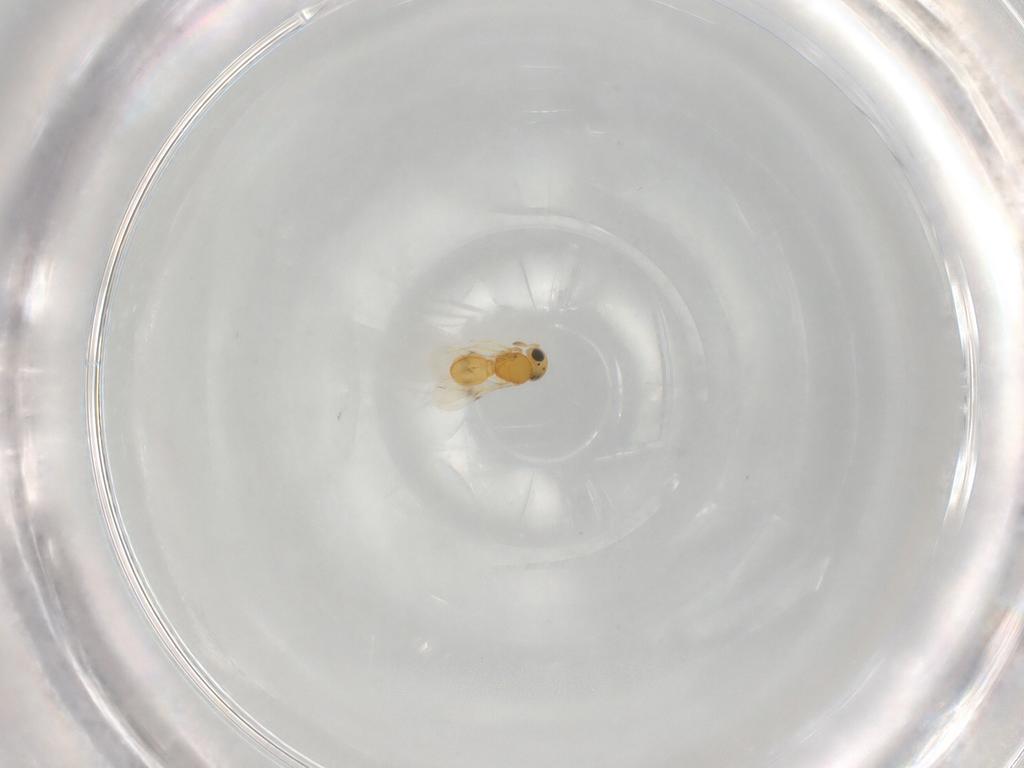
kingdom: Animalia
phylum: Arthropoda
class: Insecta
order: Hymenoptera
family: Scelionidae
